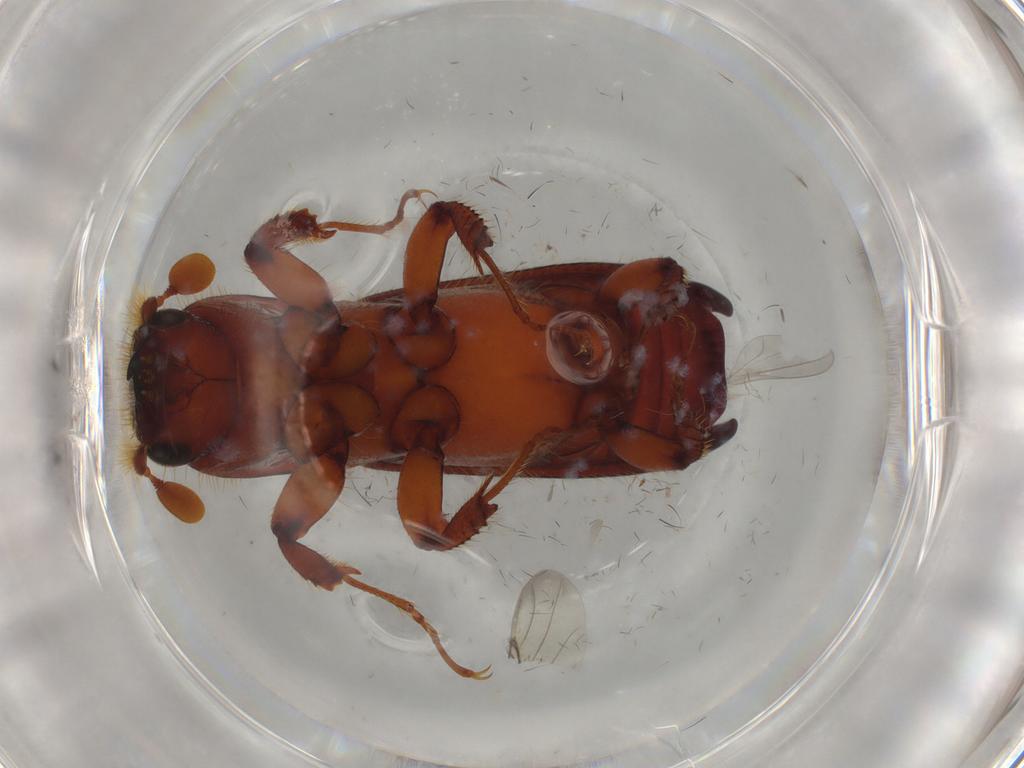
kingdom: Animalia
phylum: Arthropoda
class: Insecta
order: Coleoptera
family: Curculionidae
